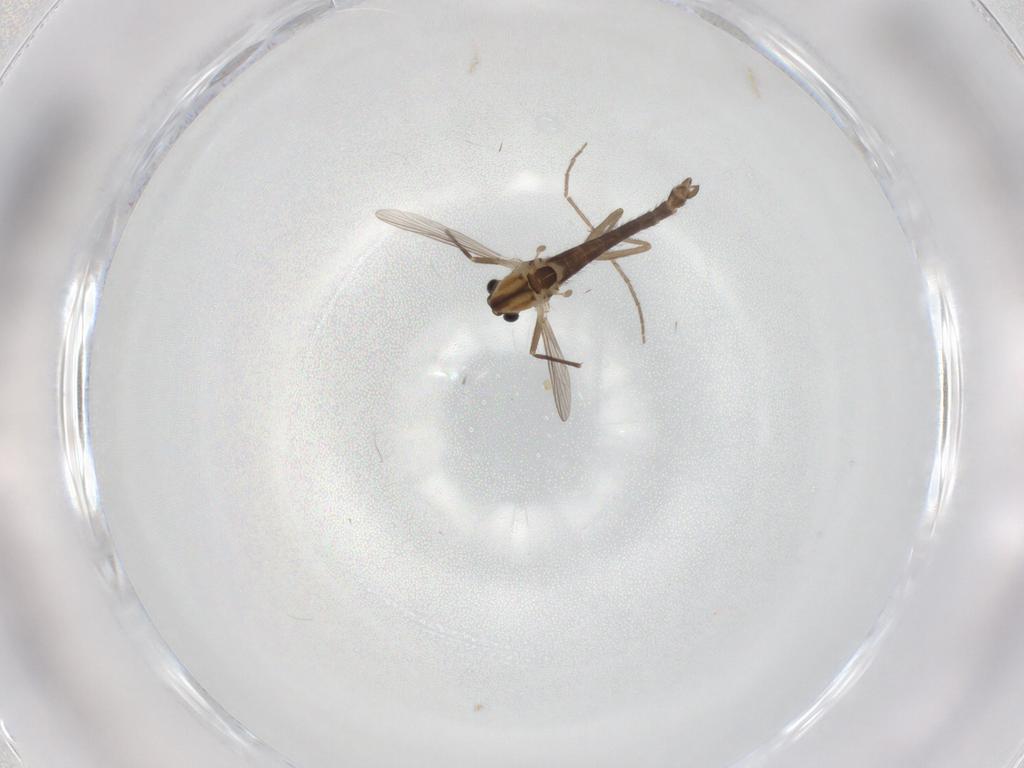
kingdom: Animalia
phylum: Arthropoda
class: Insecta
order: Diptera
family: Chironomidae
